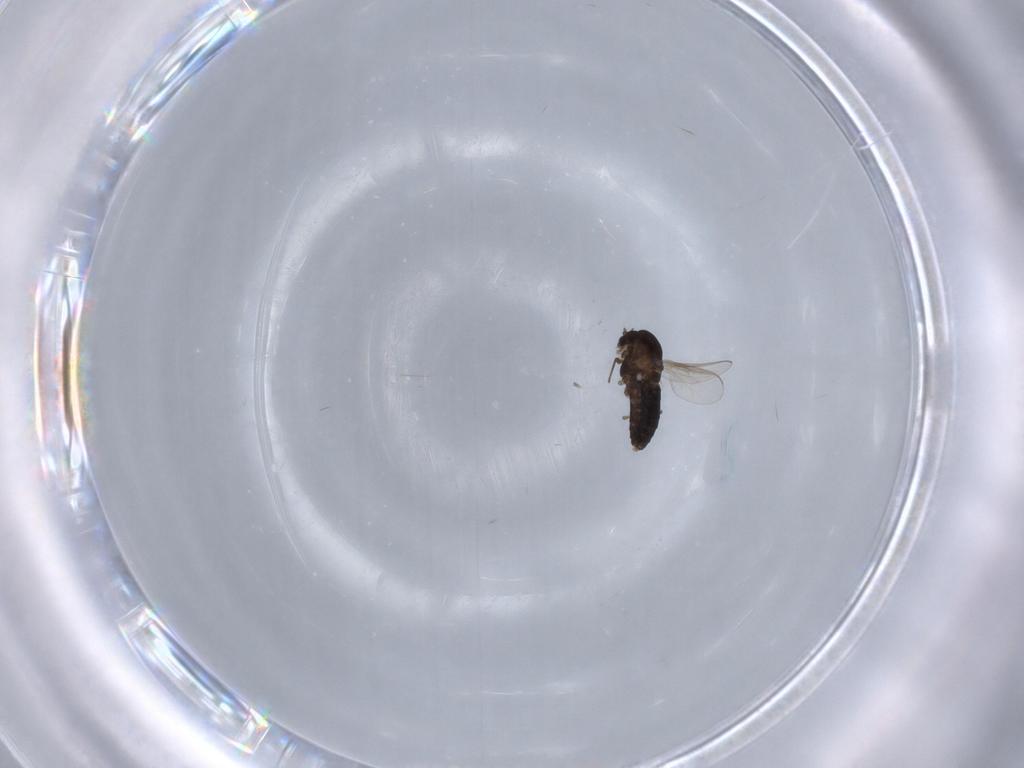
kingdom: Animalia
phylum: Arthropoda
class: Insecta
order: Diptera
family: Chironomidae
